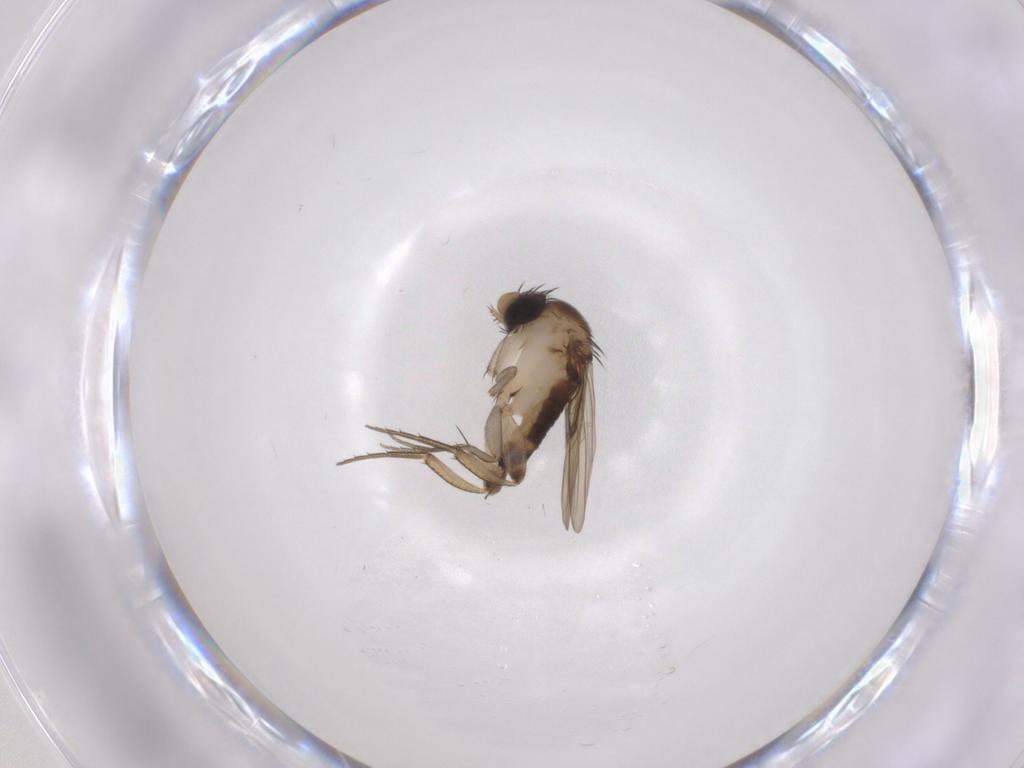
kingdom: Animalia
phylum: Arthropoda
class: Insecta
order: Diptera
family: Phoridae
